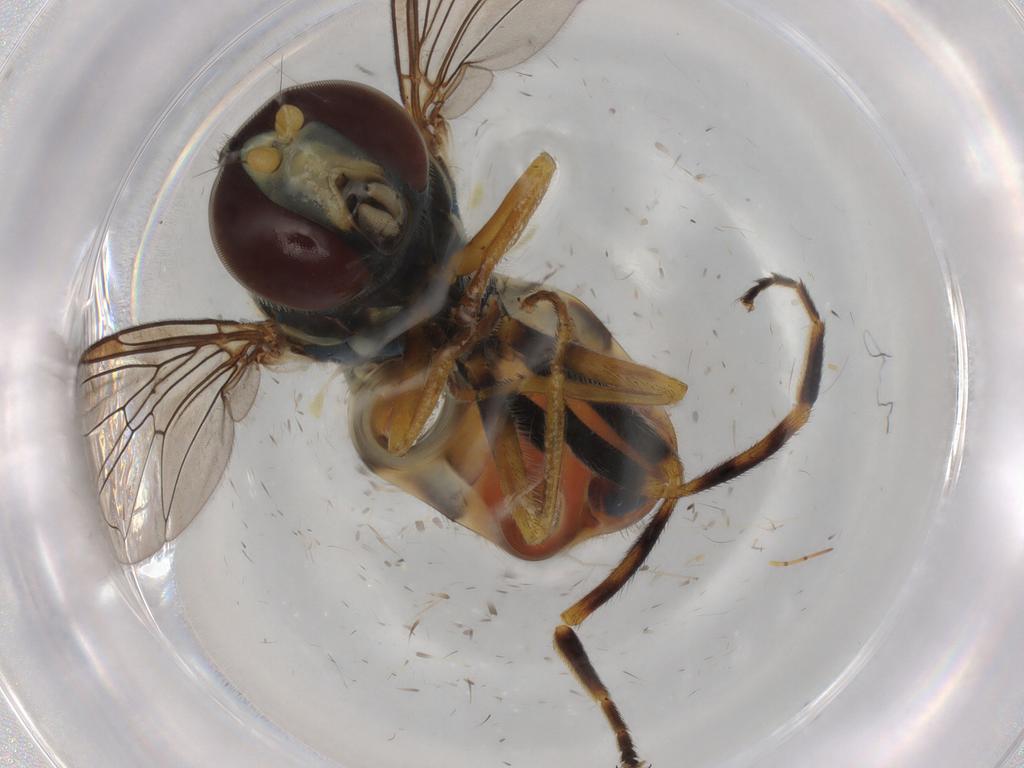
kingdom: Animalia
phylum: Arthropoda
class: Insecta
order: Diptera
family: Syrphidae
